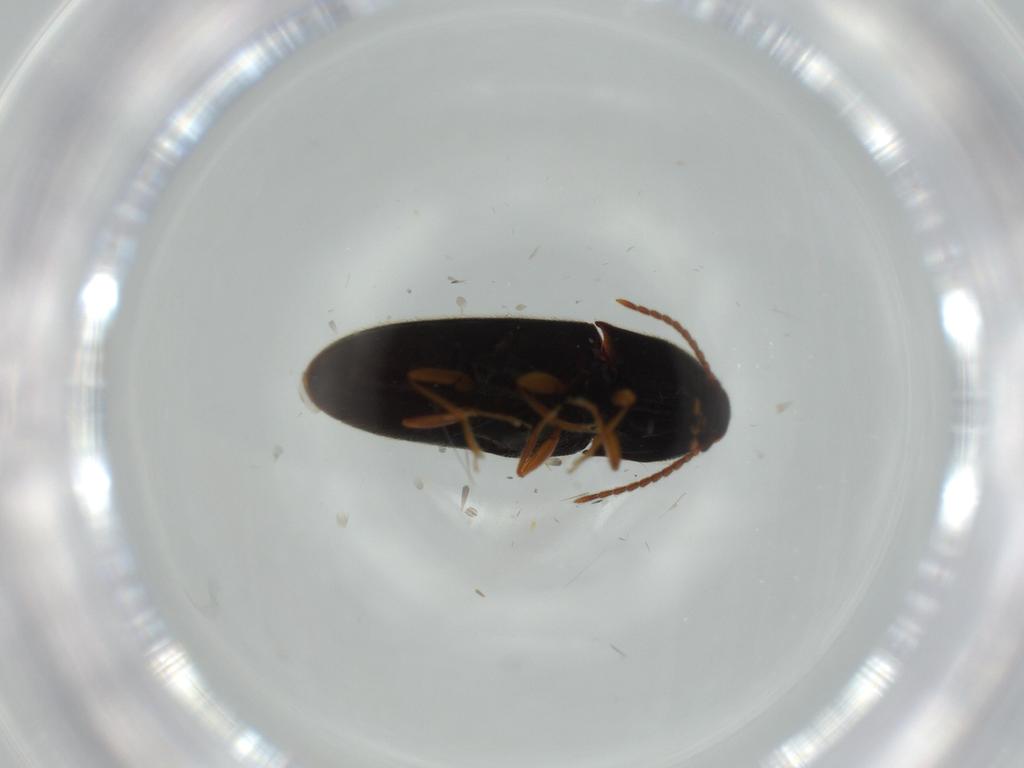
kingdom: Animalia
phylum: Arthropoda
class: Insecta
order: Coleoptera
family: Elateridae
